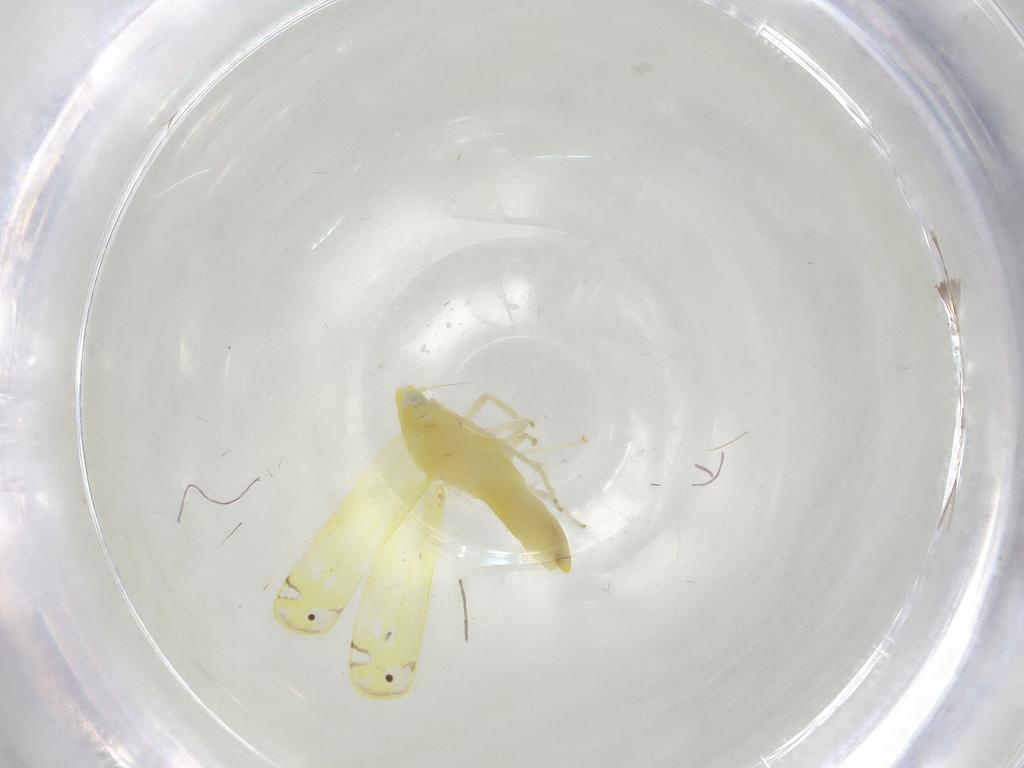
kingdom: Animalia
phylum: Arthropoda
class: Insecta
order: Hemiptera
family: Cicadellidae
